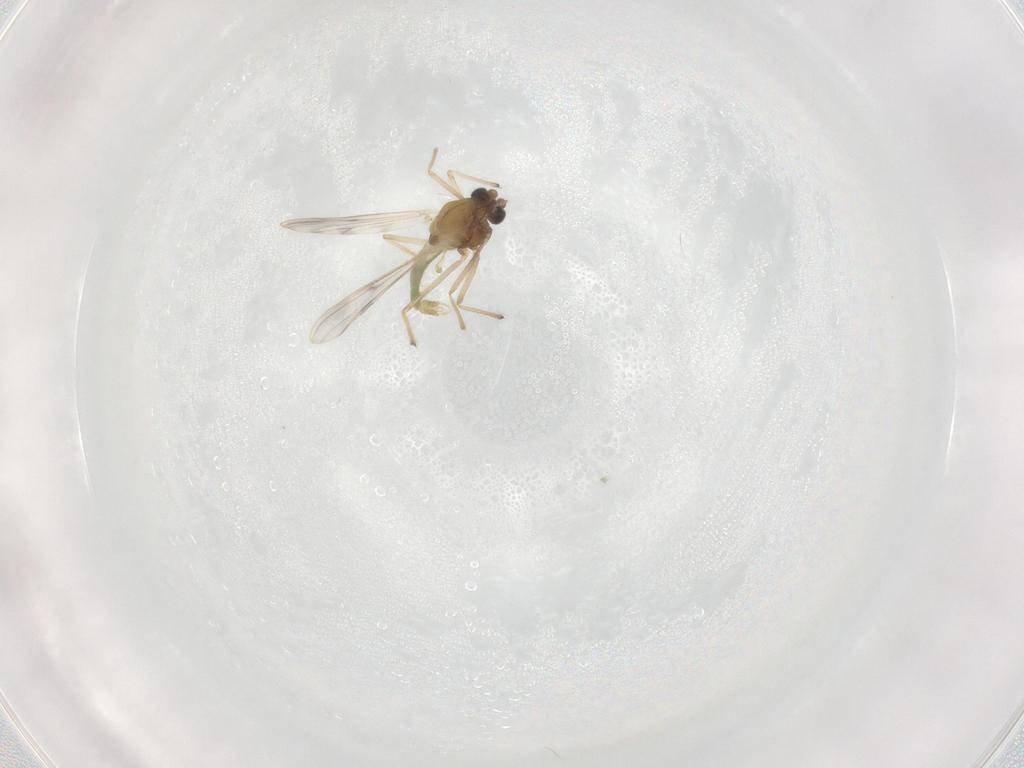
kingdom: Animalia
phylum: Arthropoda
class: Insecta
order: Diptera
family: Chironomidae
